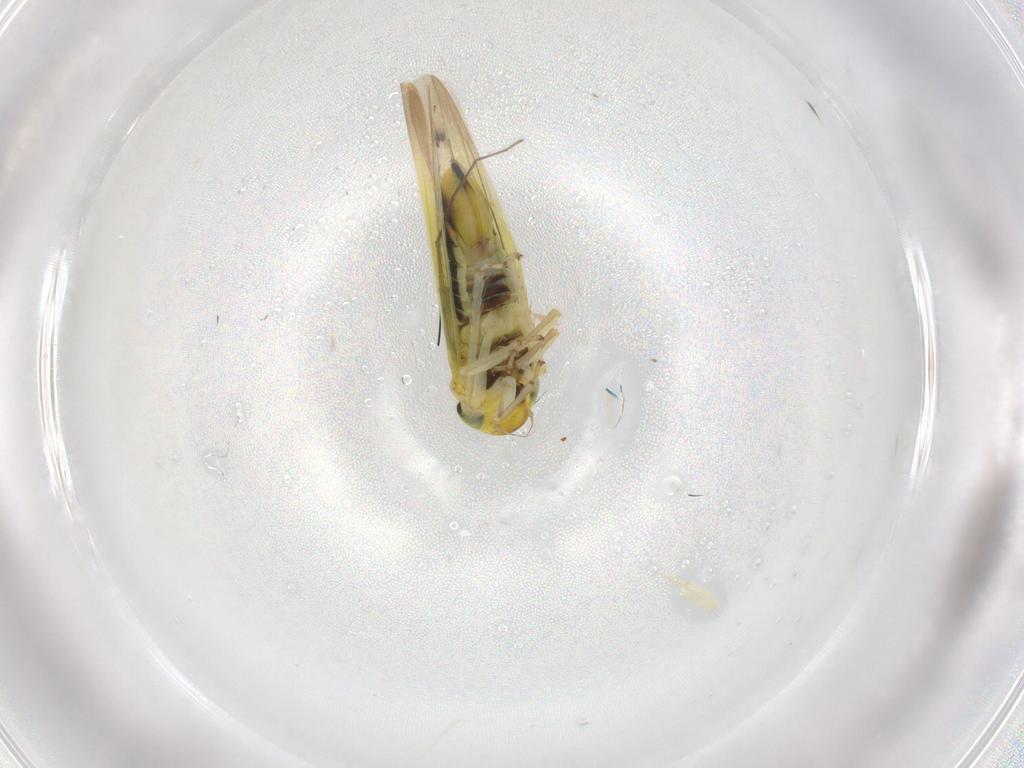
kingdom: Animalia
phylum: Arthropoda
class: Insecta
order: Hemiptera
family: Cicadellidae
